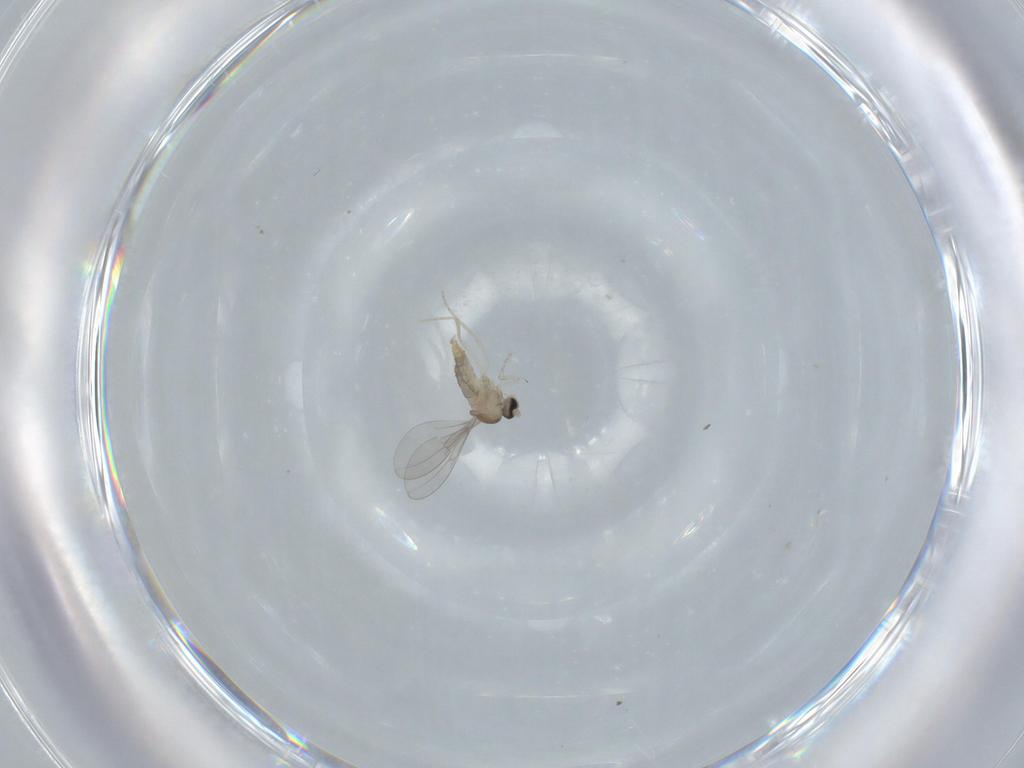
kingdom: Animalia
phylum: Arthropoda
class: Insecta
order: Diptera
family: Cecidomyiidae
